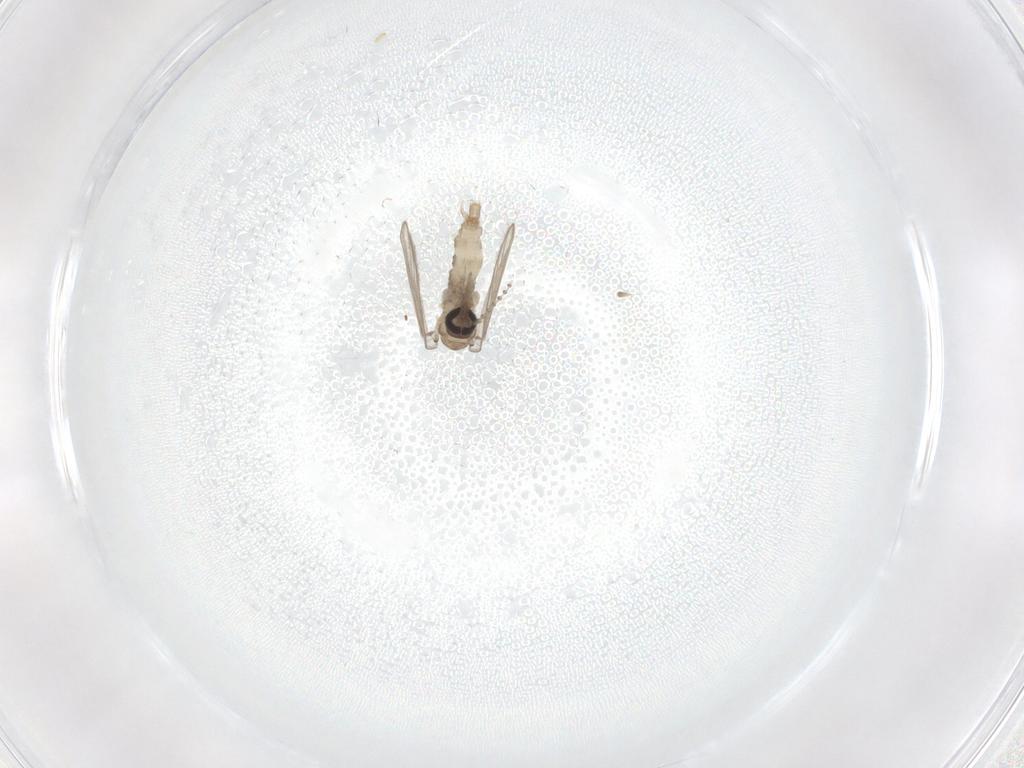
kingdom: Animalia
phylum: Arthropoda
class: Insecta
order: Diptera
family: Psychodidae
